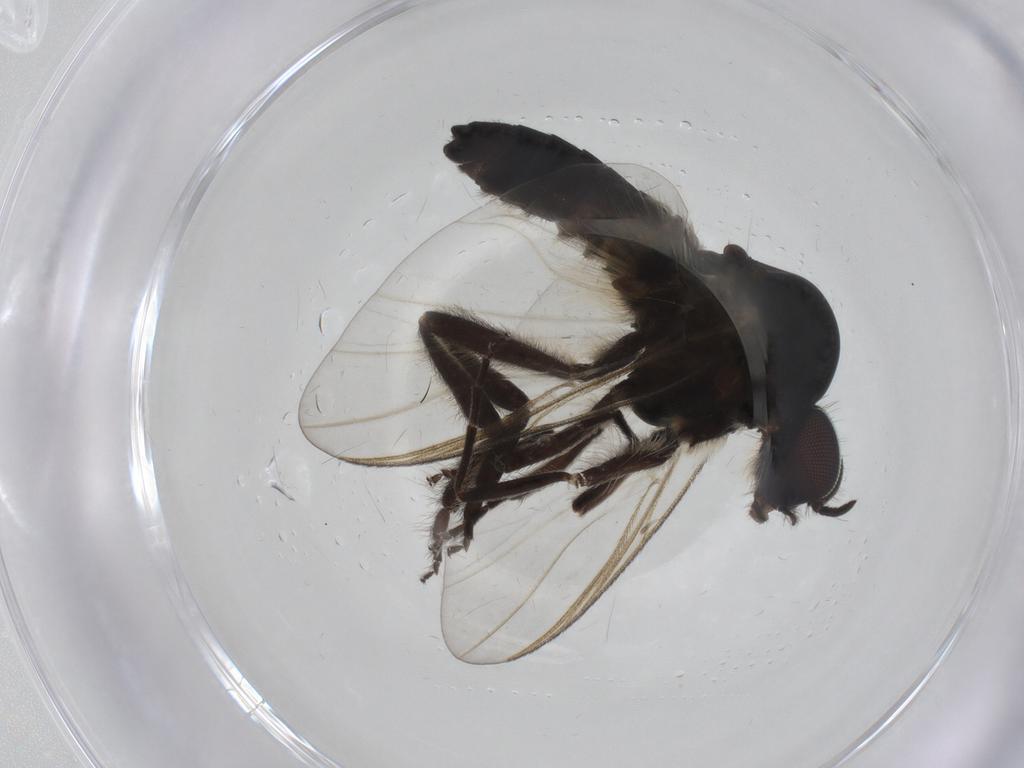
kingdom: Animalia
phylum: Arthropoda
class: Insecta
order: Diptera
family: Simuliidae
